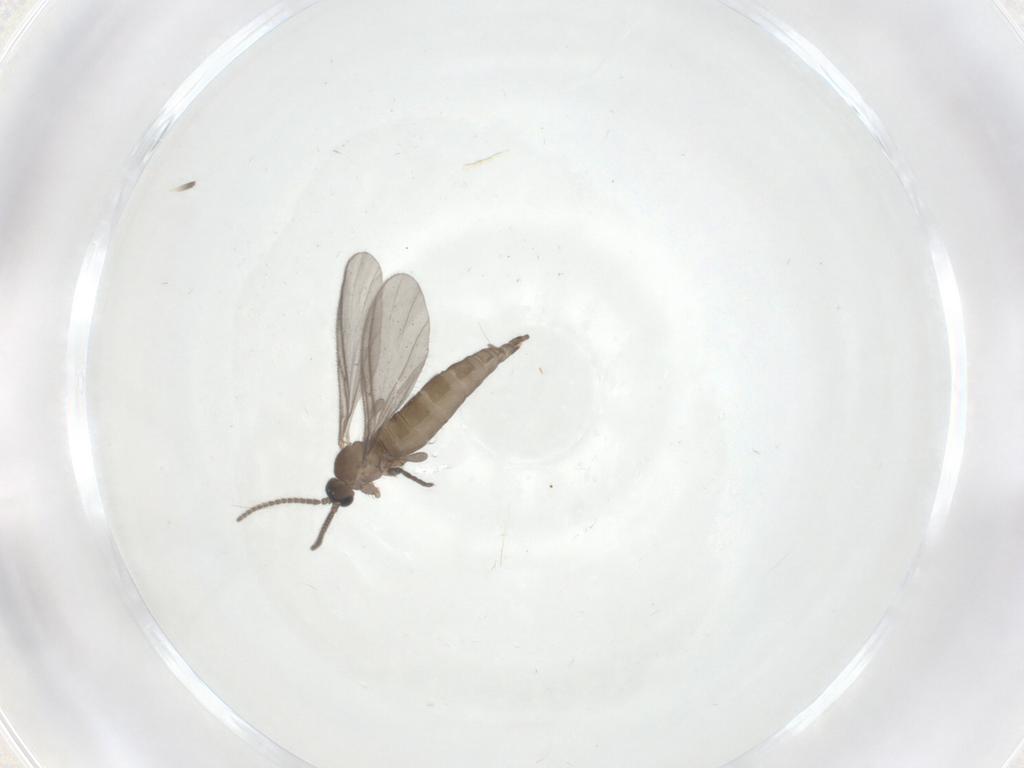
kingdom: Animalia
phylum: Arthropoda
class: Insecta
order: Diptera
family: Sciaridae
